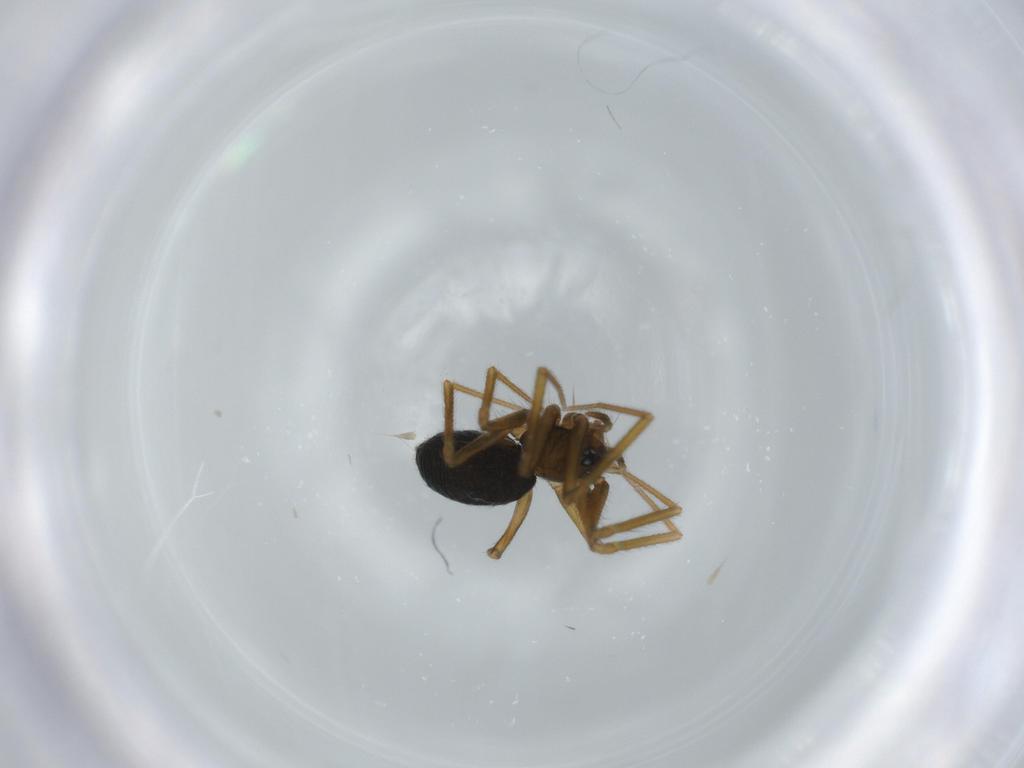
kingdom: Animalia
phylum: Arthropoda
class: Arachnida
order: Araneae
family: Linyphiidae
